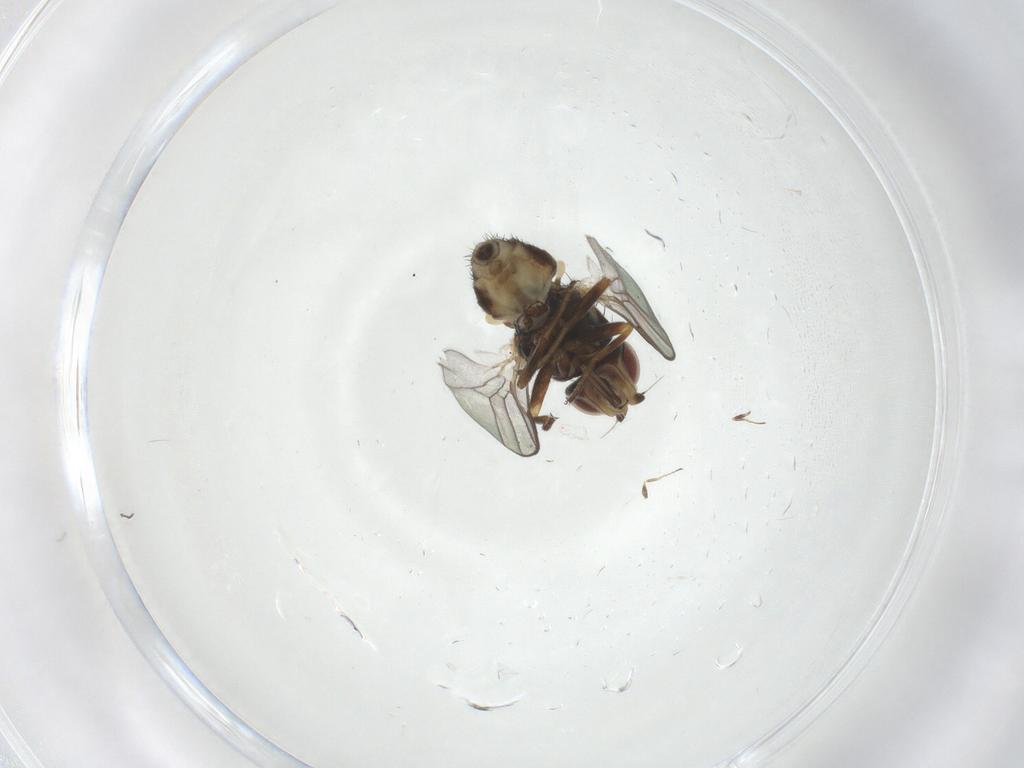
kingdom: Animalia
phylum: Arthropoda
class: Insecta
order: Diptera
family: Chloropidae
